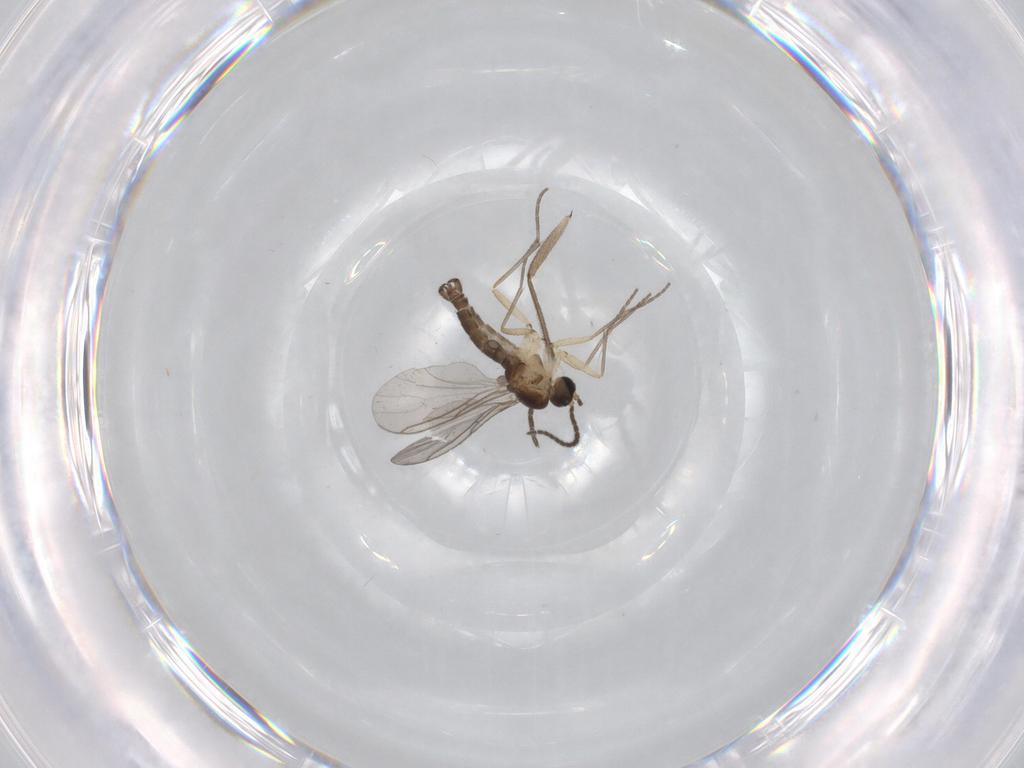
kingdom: Animalia
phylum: Arthropoda
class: Insecta
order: Diptera
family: Sciaridae
